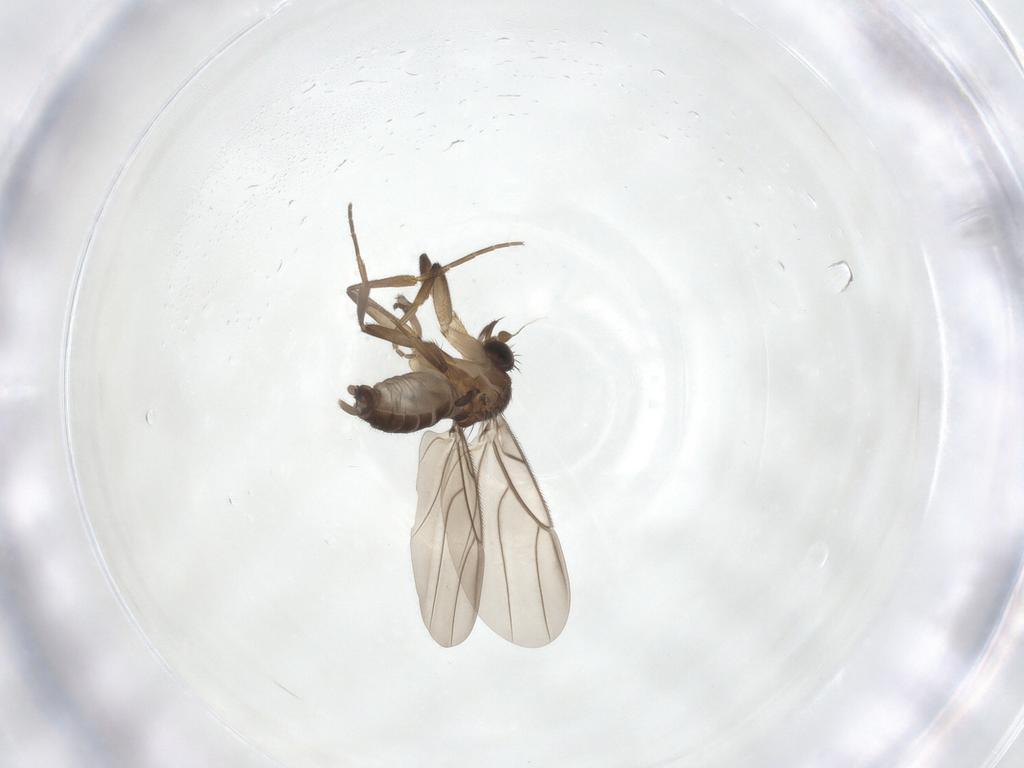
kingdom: Animalia
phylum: Arthropoda
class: Insecta
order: Diptera
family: Phoridae
